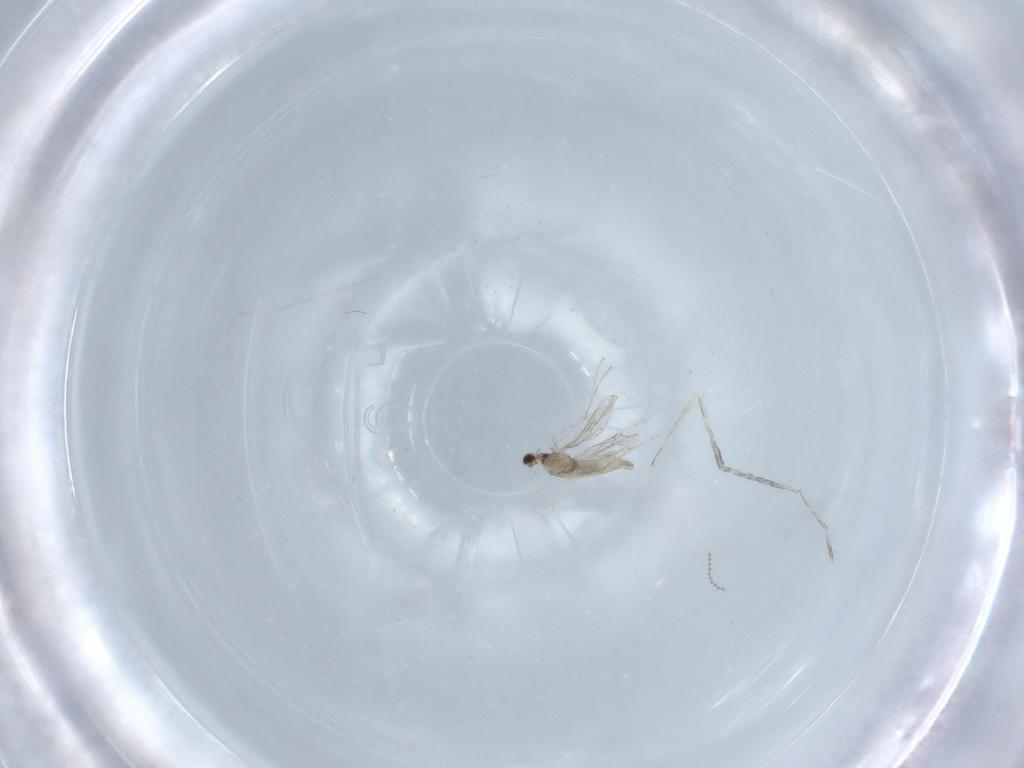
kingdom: Animalia
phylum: Arthropoda
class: Insecta
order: Diptera
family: Cecidomyiidae
